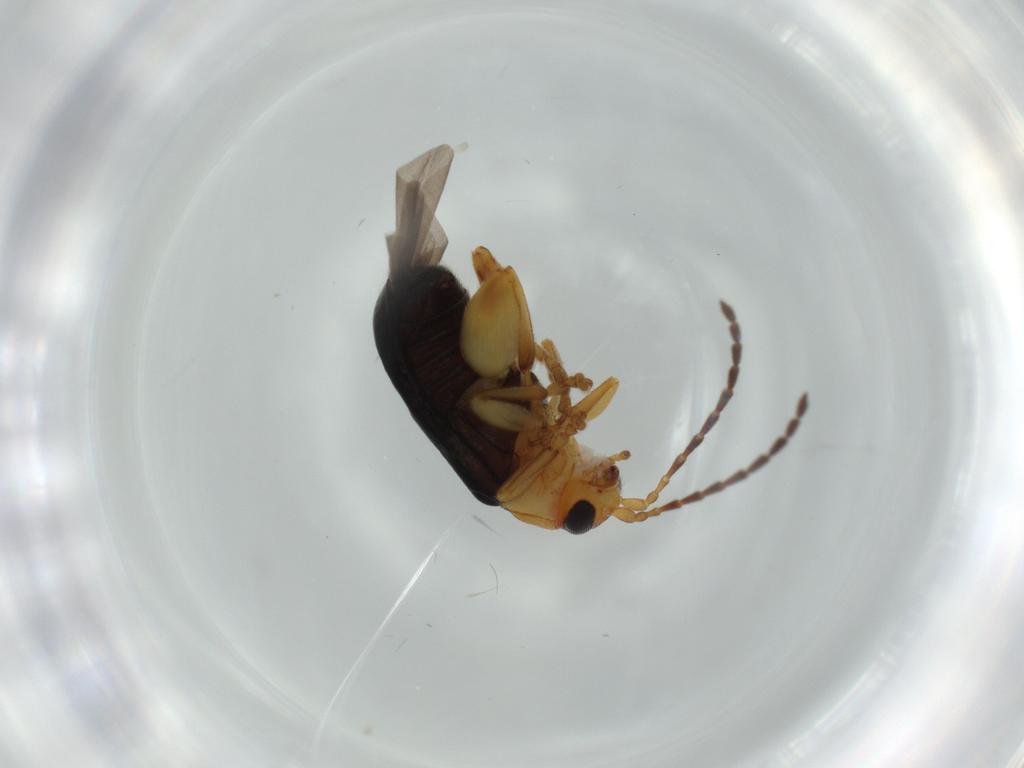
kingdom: Animalia
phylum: Arthropoda
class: Insecta
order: Coleoptera
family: Chrysomelidae
